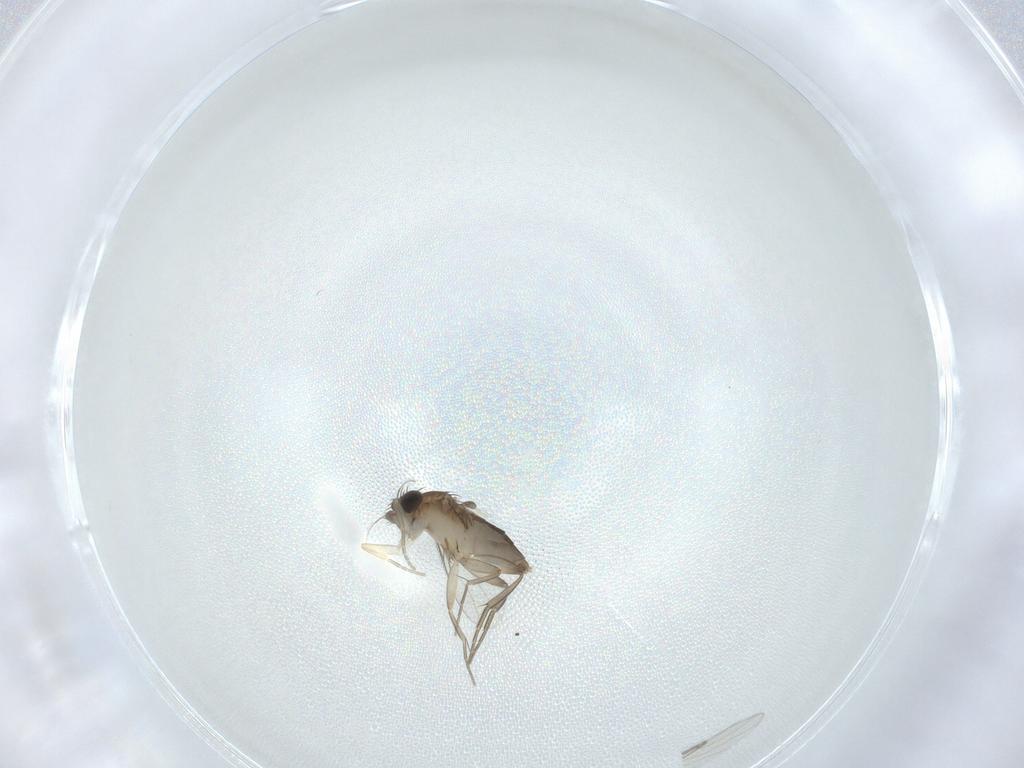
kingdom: Animalia
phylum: Arthropoda
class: Insecta
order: Diptera
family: Phoridae
